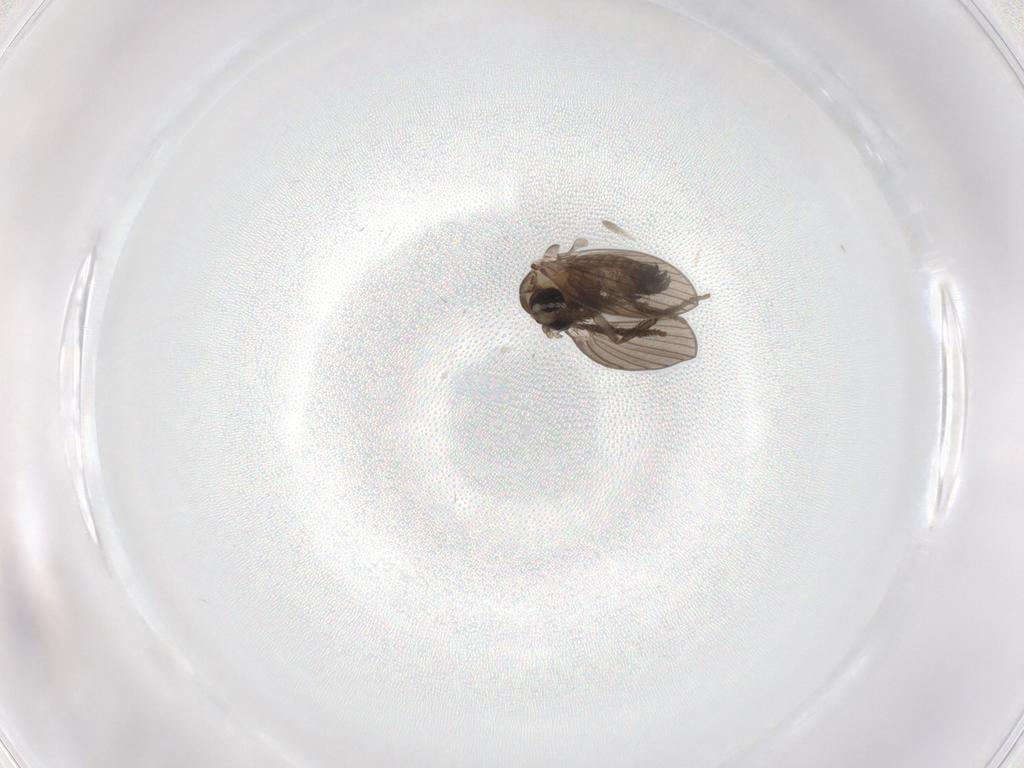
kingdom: Animalia
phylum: Arthropoda
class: Insecta
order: Diptera
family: Psychodidae
